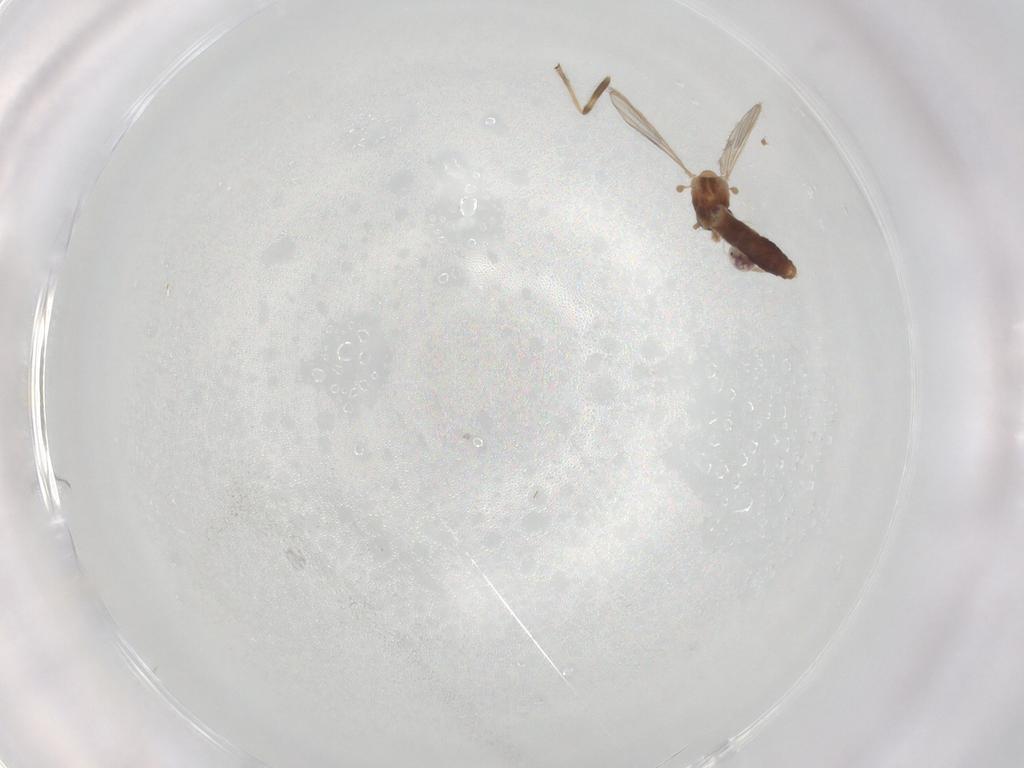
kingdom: Animalia
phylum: Arthropoda
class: Insecta
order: Diptera
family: Chironomidae
